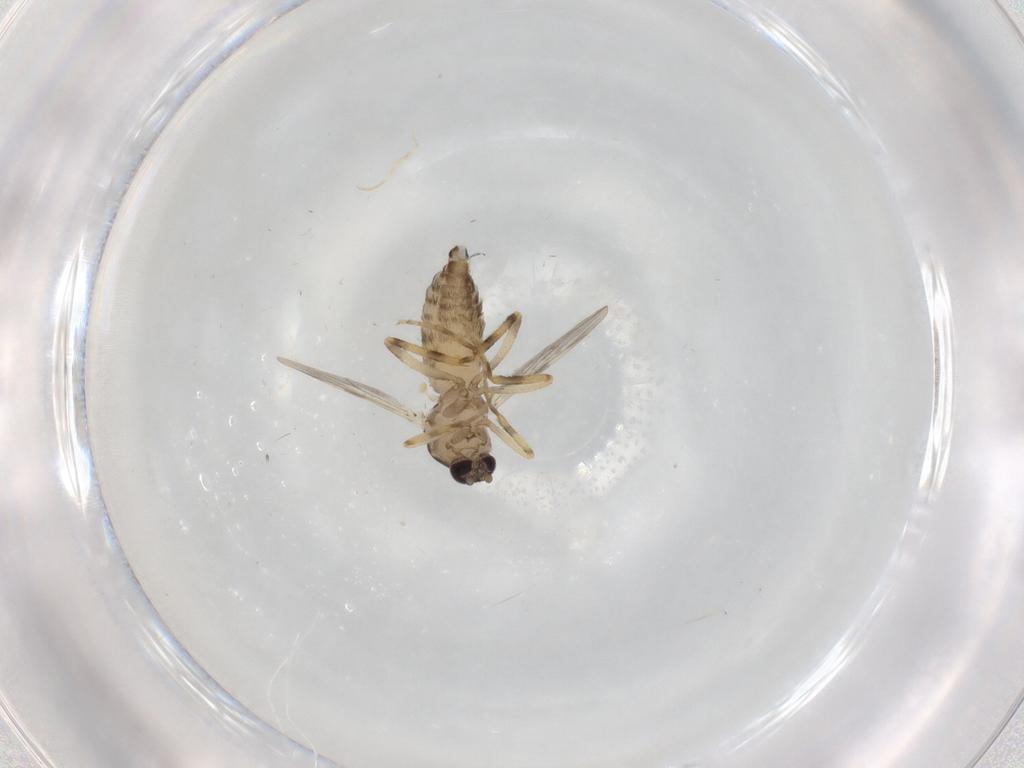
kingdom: Animalia
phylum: Arthropoda
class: Insecta
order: Diptera
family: Ceratopogonidae
